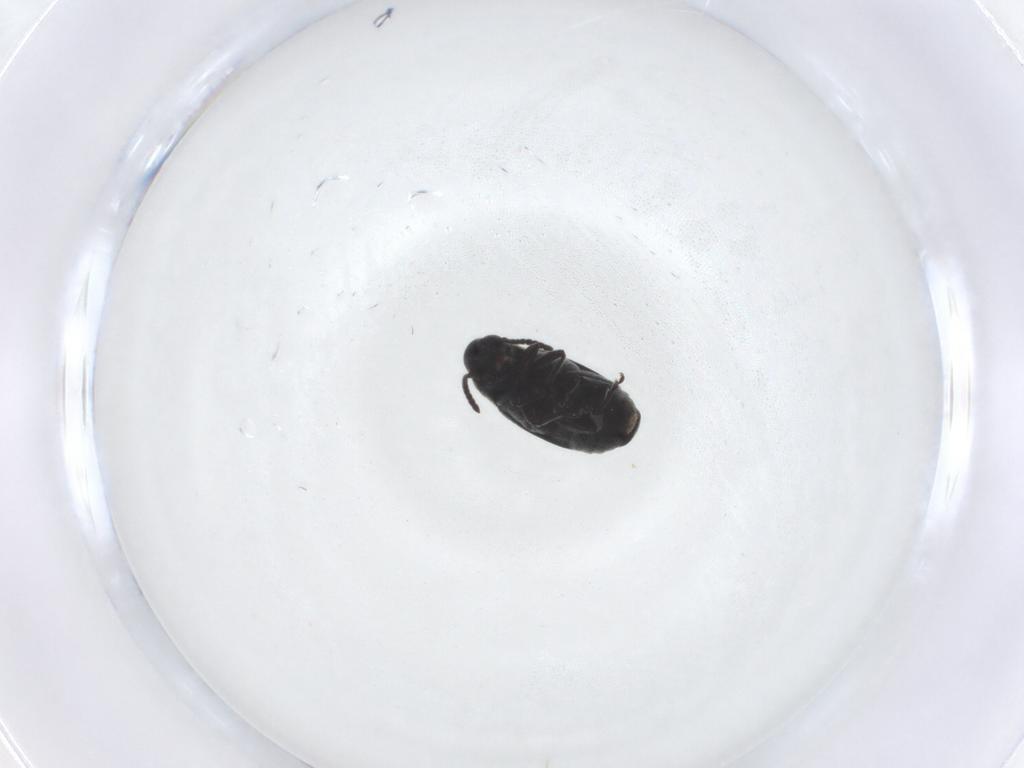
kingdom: Animalia
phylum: Arthropoda
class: Insecta
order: Coleoptera
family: Chrysomelidae
